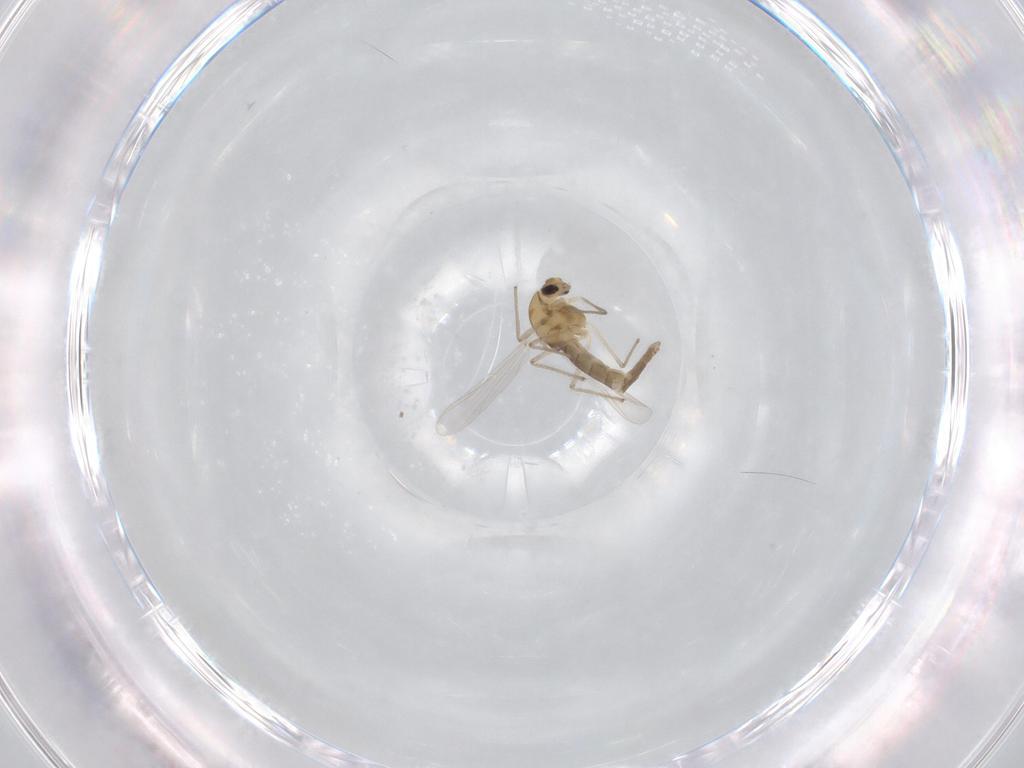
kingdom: Animalia
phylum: Arthropoda
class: Insecta
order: Diptera
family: Chironomidae
